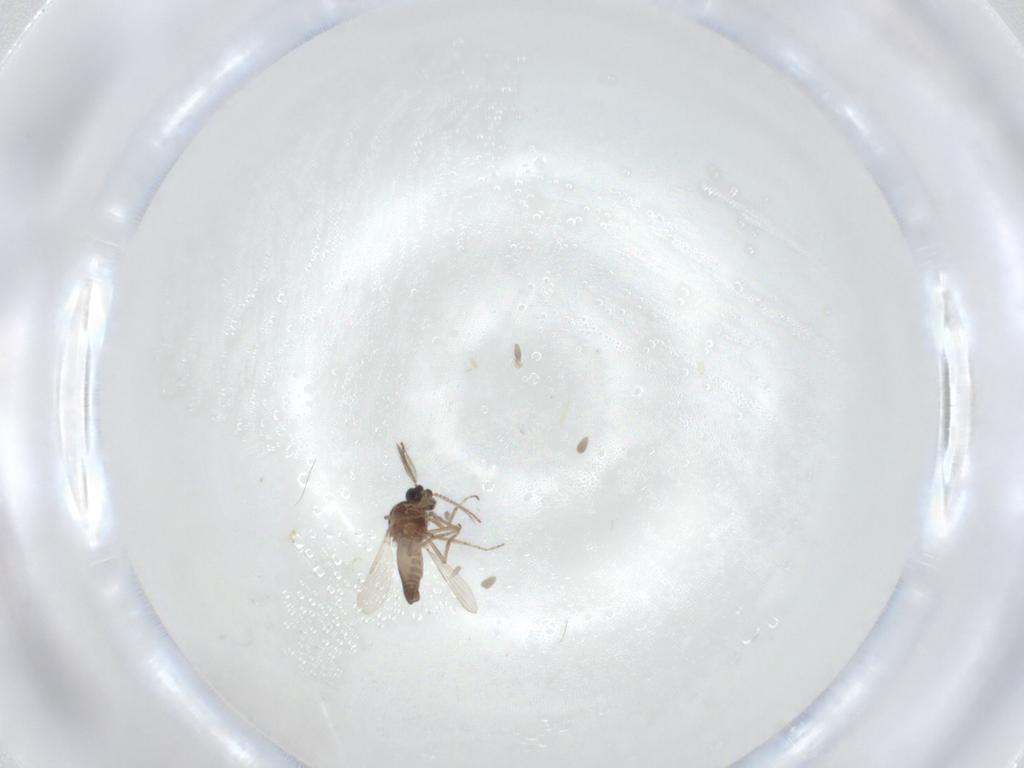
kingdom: Animalia
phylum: Arthropoda
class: Insecta
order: Diptera
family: Ceratopogonidae
